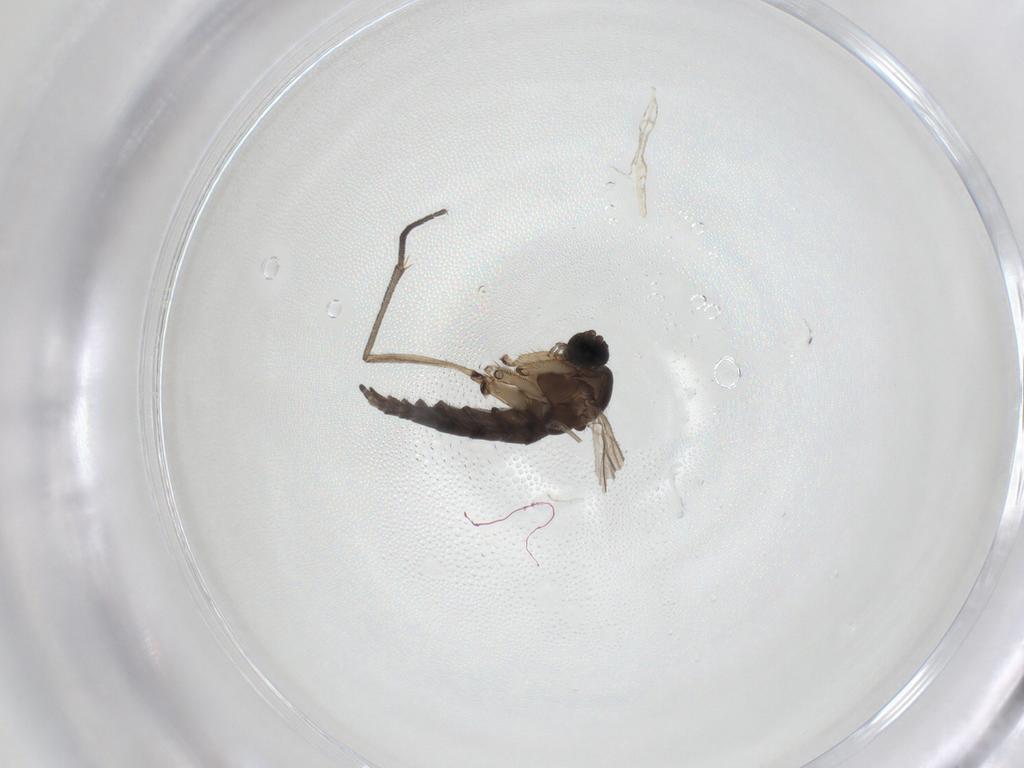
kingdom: Animalia
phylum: Arthropoda
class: Insecta
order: Diptera
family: Sciaridae
